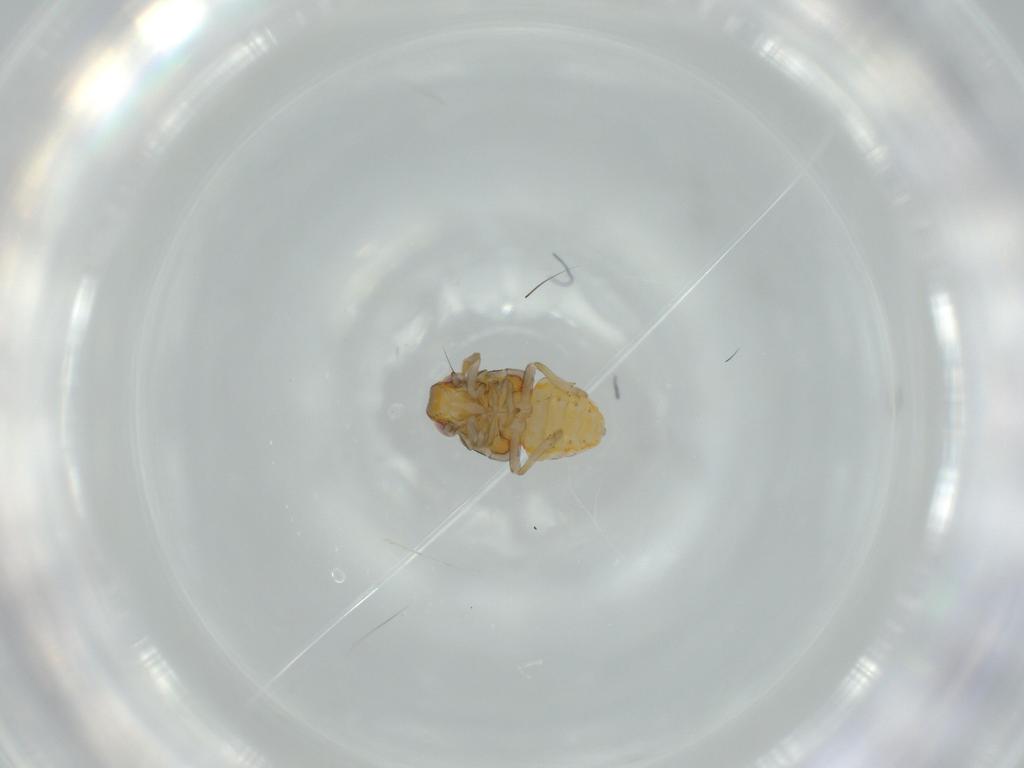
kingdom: Animalia
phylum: Arthropoda
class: Insecta
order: Hemiptera
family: Issidae
